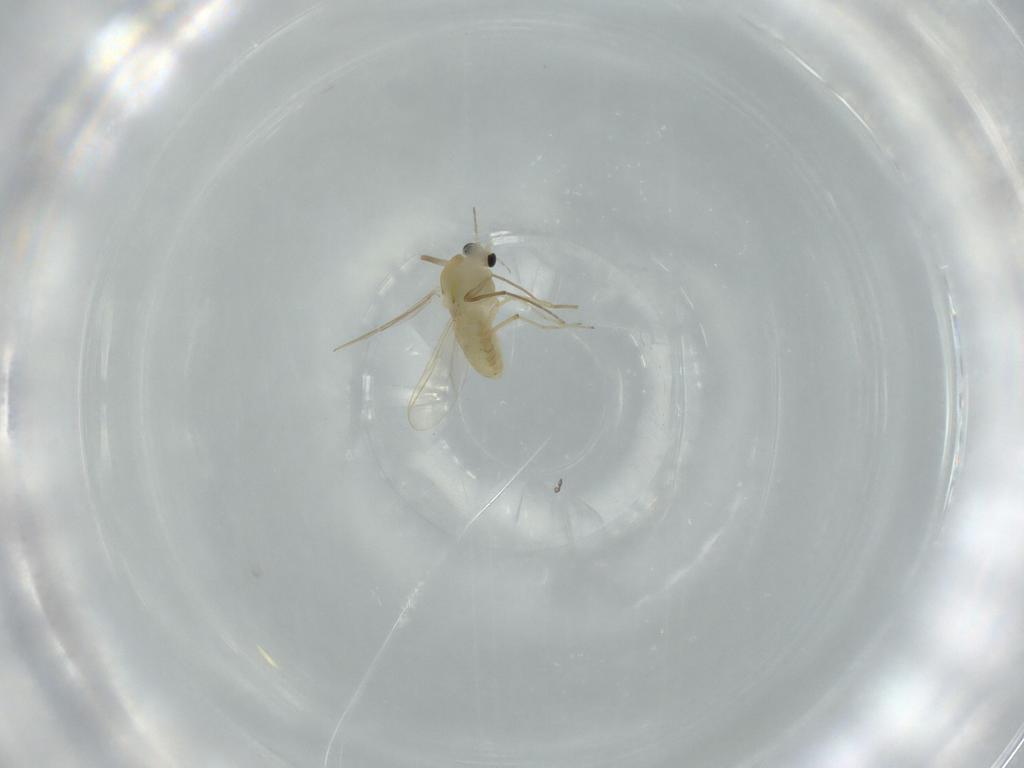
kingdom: Animalia
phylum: Arthropoda
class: Insecta
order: Diptera
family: Chironomidae
